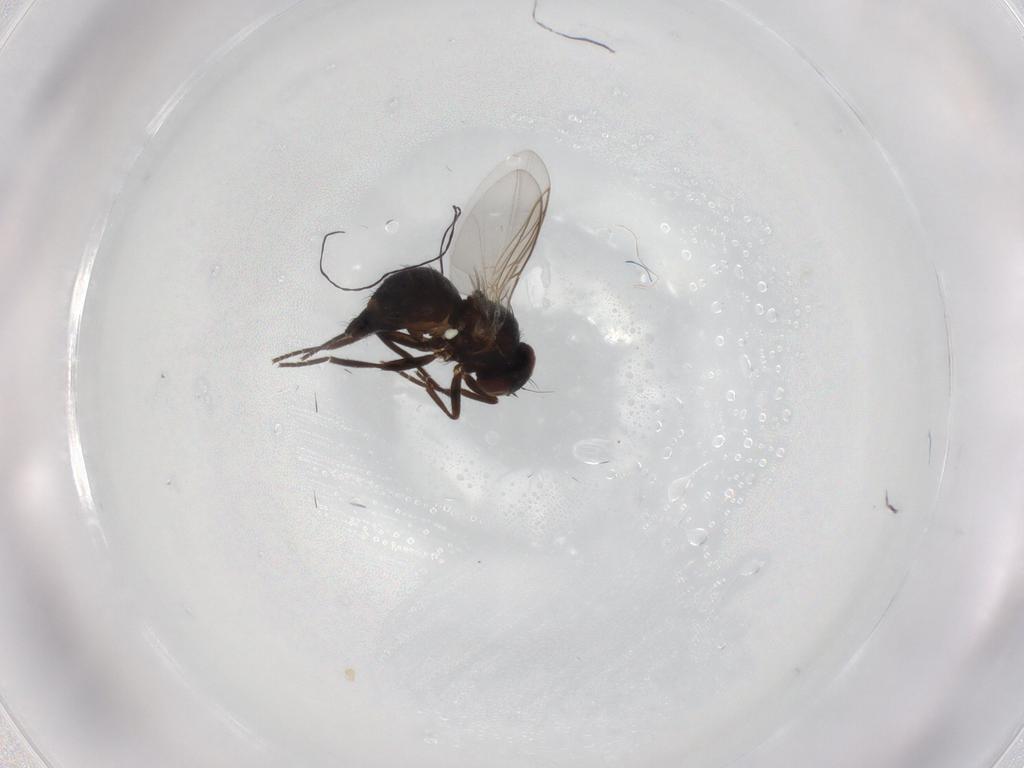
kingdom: Animalia
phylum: Arthropoda
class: Insecta
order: Diptera
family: Agromyzidae
